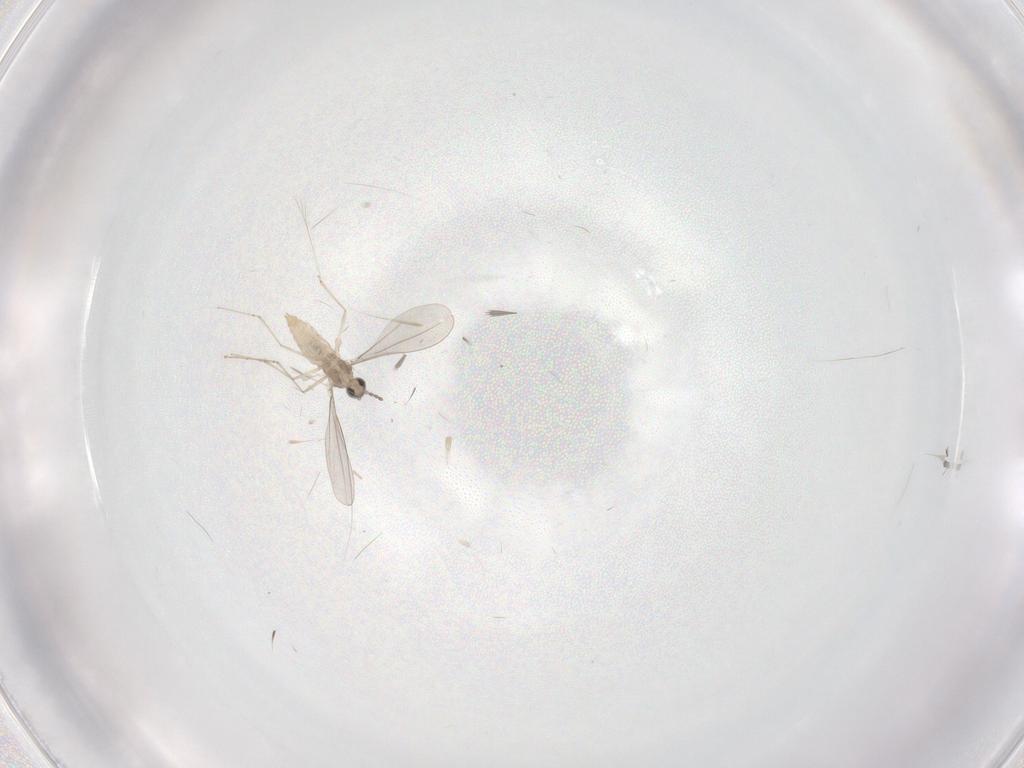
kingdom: Animalia
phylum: Arthropoda
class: Insecta
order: Diptera
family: Cecidomyiidae
